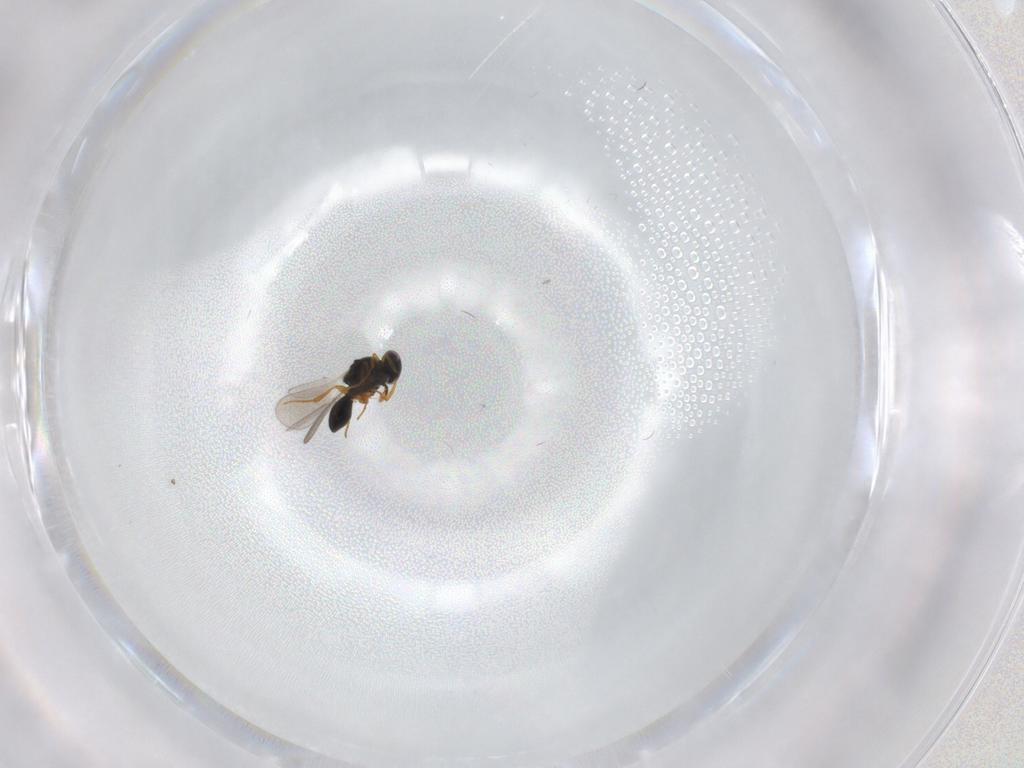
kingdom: Animalia
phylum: Arthropoda
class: Insecta
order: Hymenoptera
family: Platygastridae
